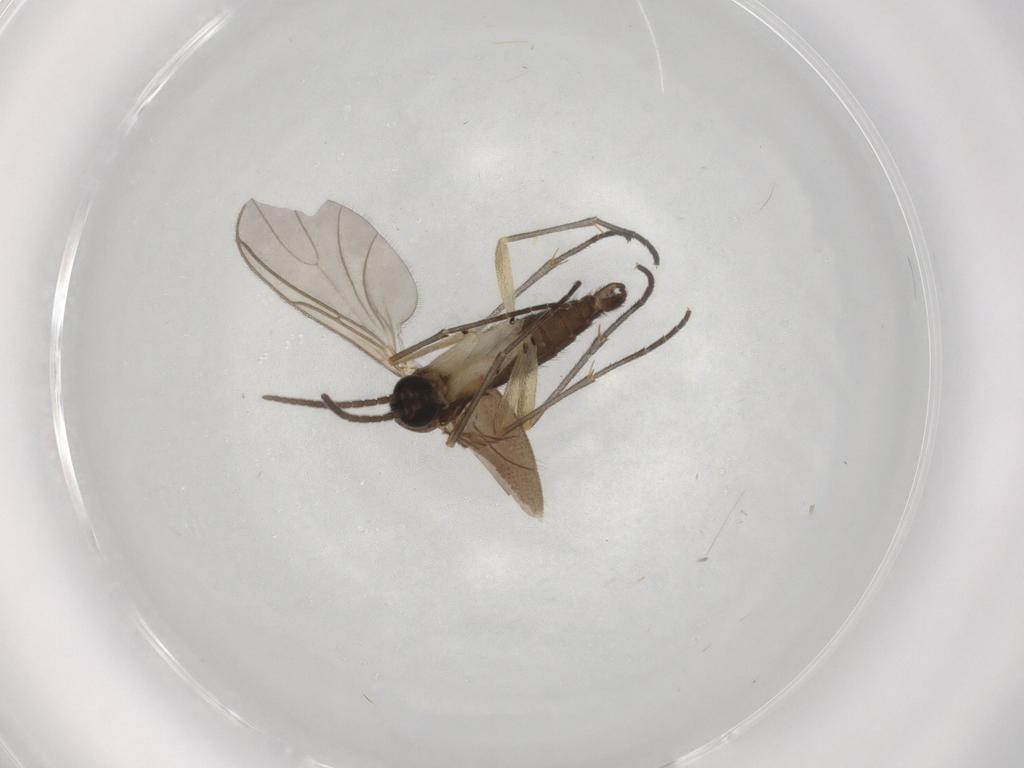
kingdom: Animalia
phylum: Arthropoda
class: Insecta
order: Diptera
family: Sciaridae
